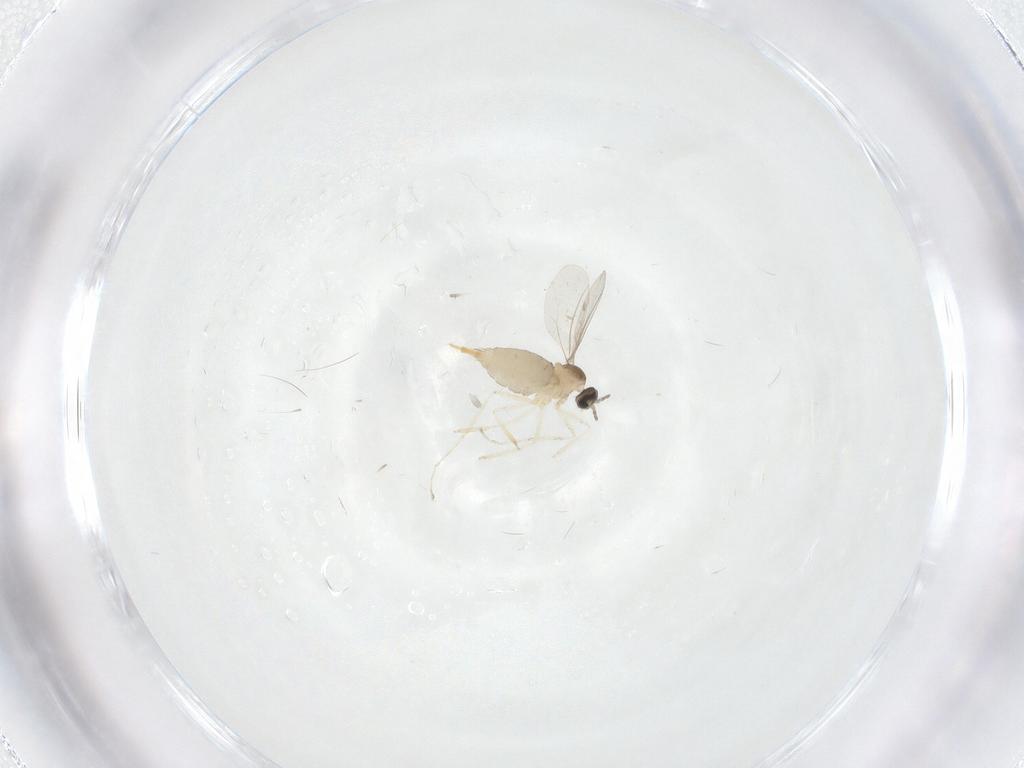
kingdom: Animalia
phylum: Arthropoda
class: Insecta
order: Diptera
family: Cecidomyiidae
